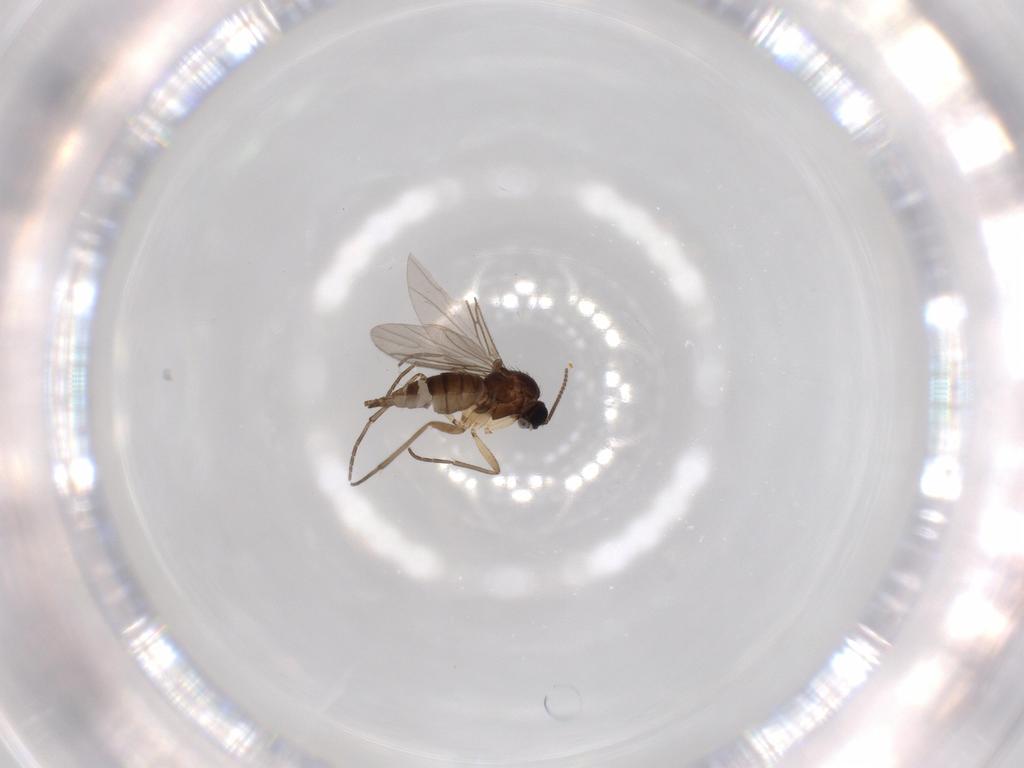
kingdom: Animalia
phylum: Arthropoda
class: Insecta
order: Diptera
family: Sciaridae
